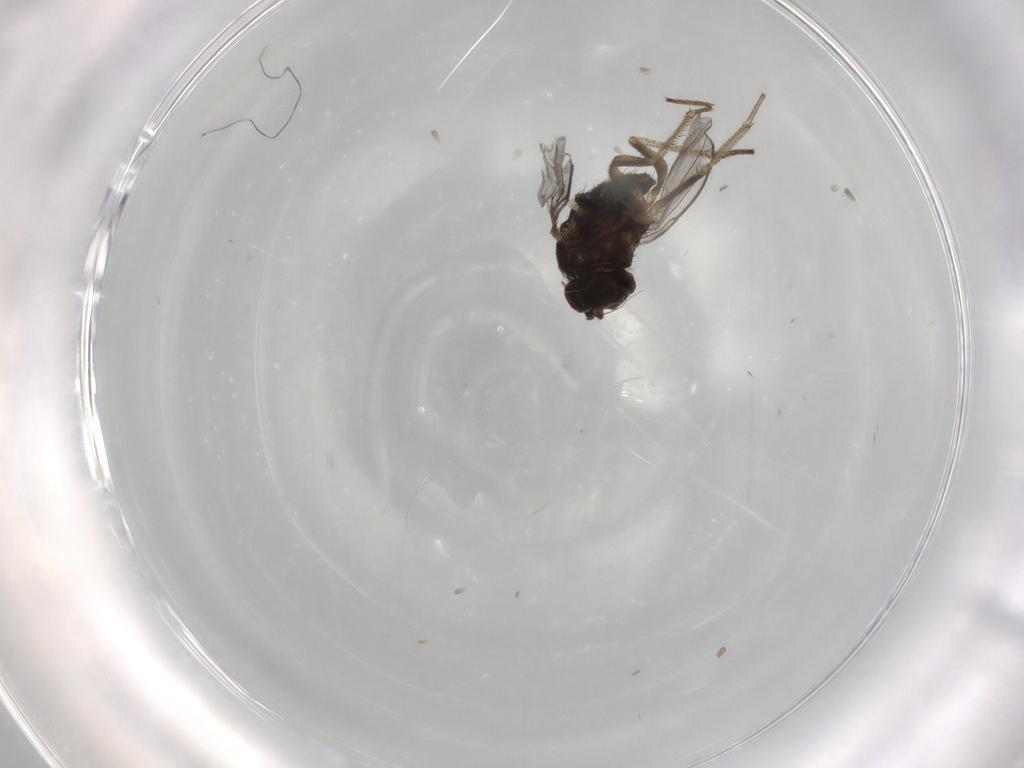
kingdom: Animalia
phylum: Arthropoda
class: Insecta
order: Diptera
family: Dolichopodidae
